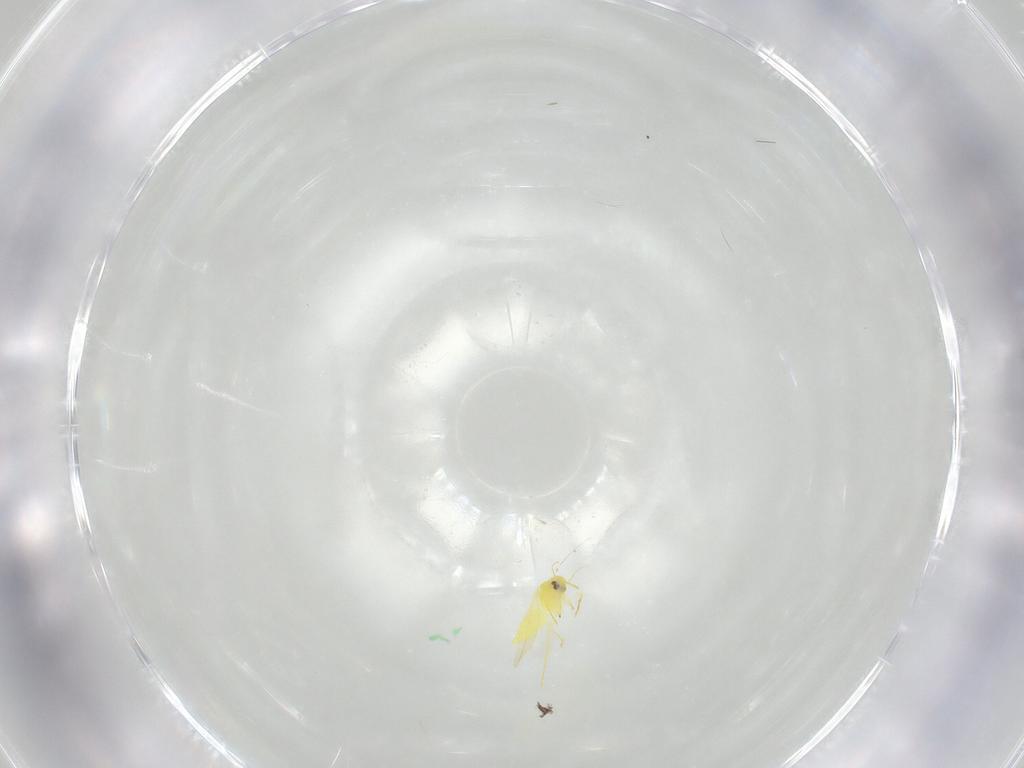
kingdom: Animalia
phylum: Arthropoda
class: Insecta
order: Hemiptera
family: Aleyrodidae
